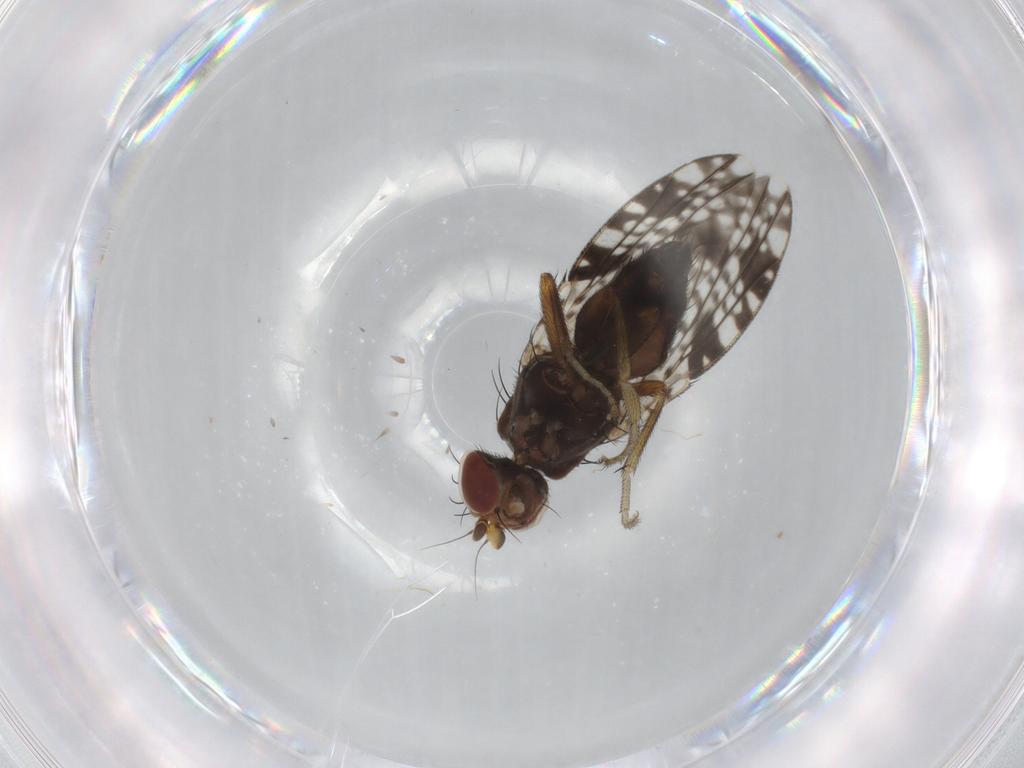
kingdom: Animalia
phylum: Arthropoda
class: Insecta
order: Diptera
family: Tephritidae
